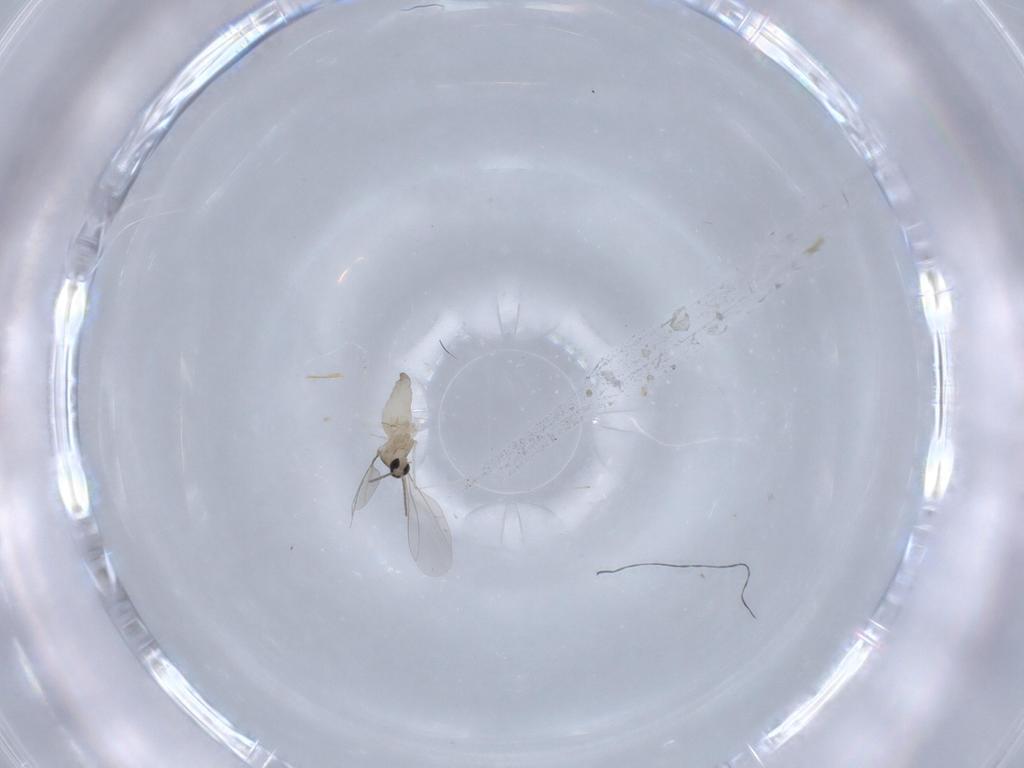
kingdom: Animalia
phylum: Arthropoda
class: Insecta
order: Diptera
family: Cecidomyiidae
